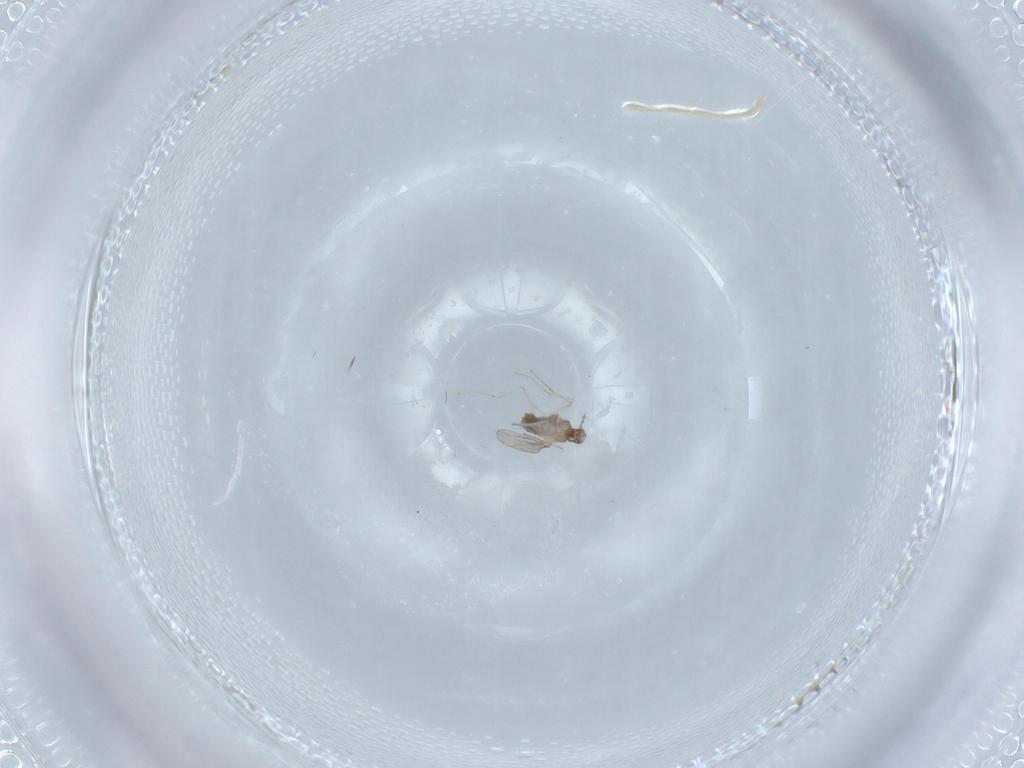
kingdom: Animalia
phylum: Arthropoda
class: Insecta
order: Diptera
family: Cecidomyiidae
